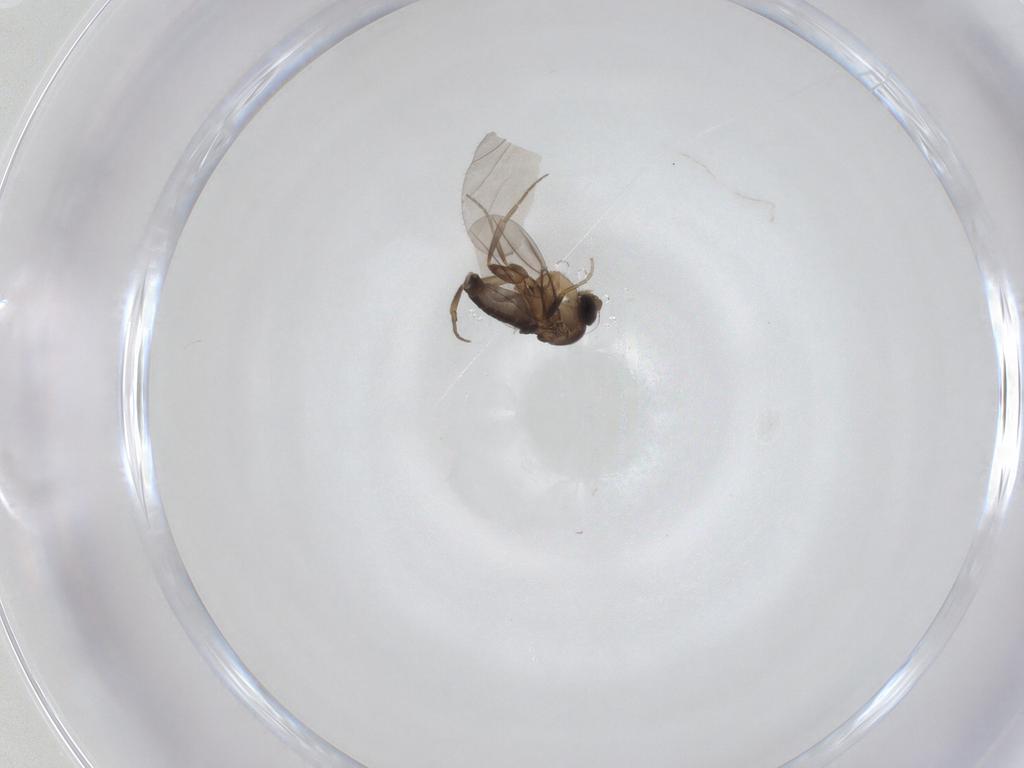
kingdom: Animalia
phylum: Arthropoda
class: Insecta
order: Diptera
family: Phoridae
